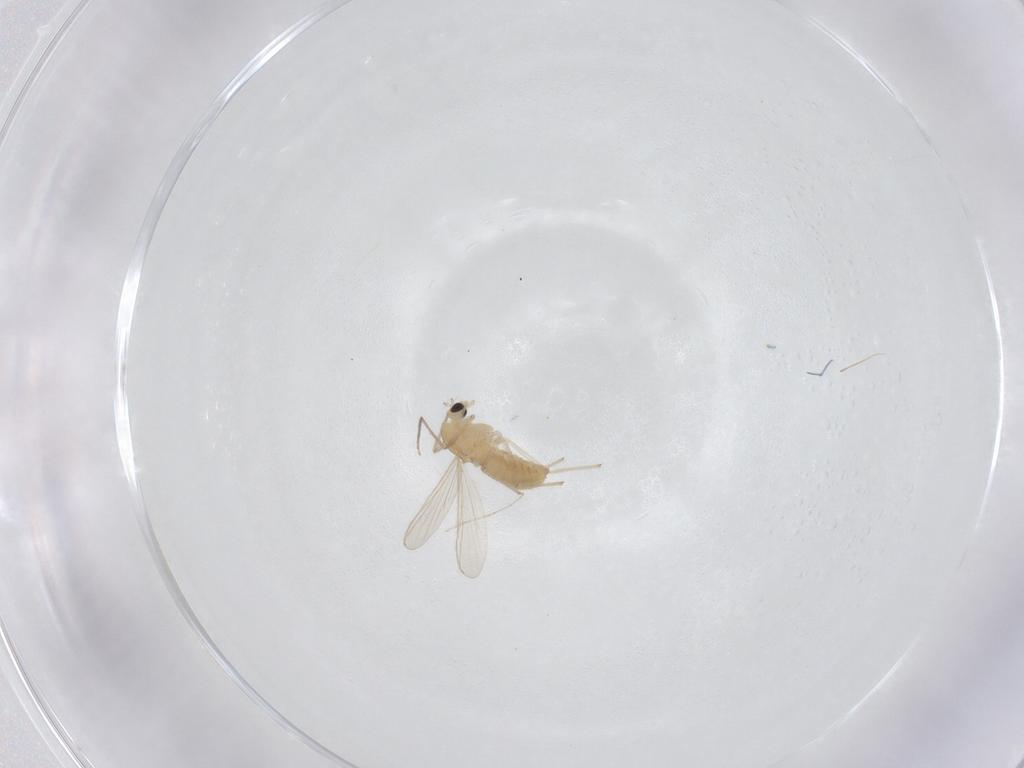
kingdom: Animalia
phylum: Arthropoda
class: Insecta
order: Diptera
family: Chironomidae
